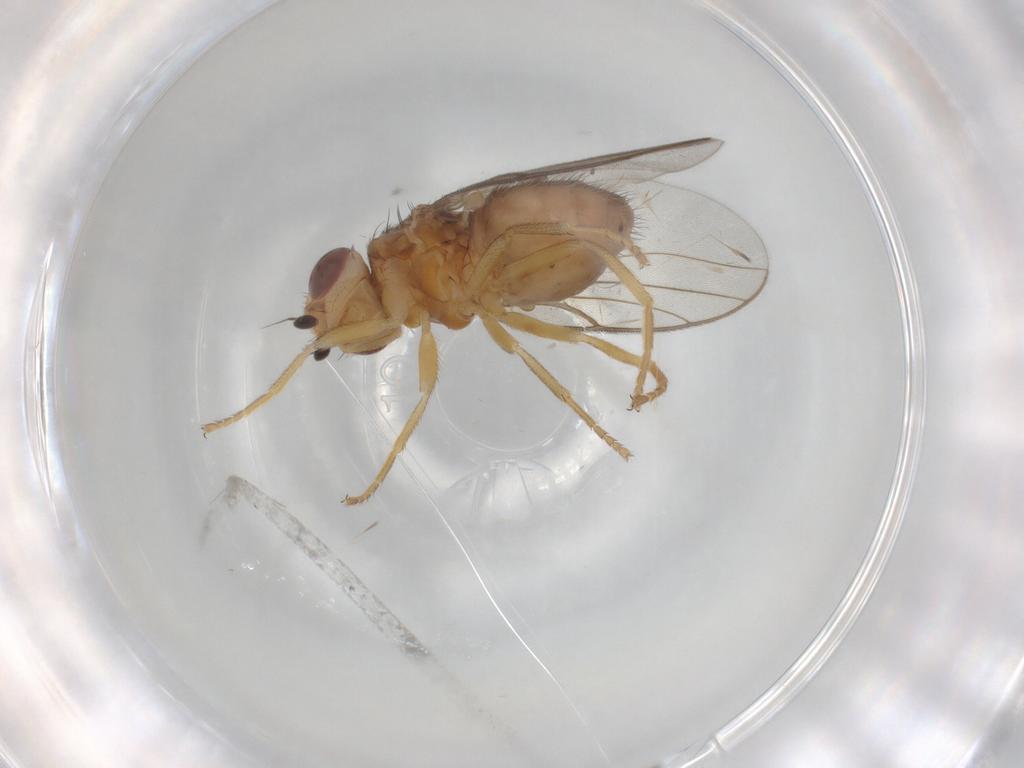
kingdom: Animalia
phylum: Arthropoda
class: Insecta
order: Diptera
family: Chloropidae
